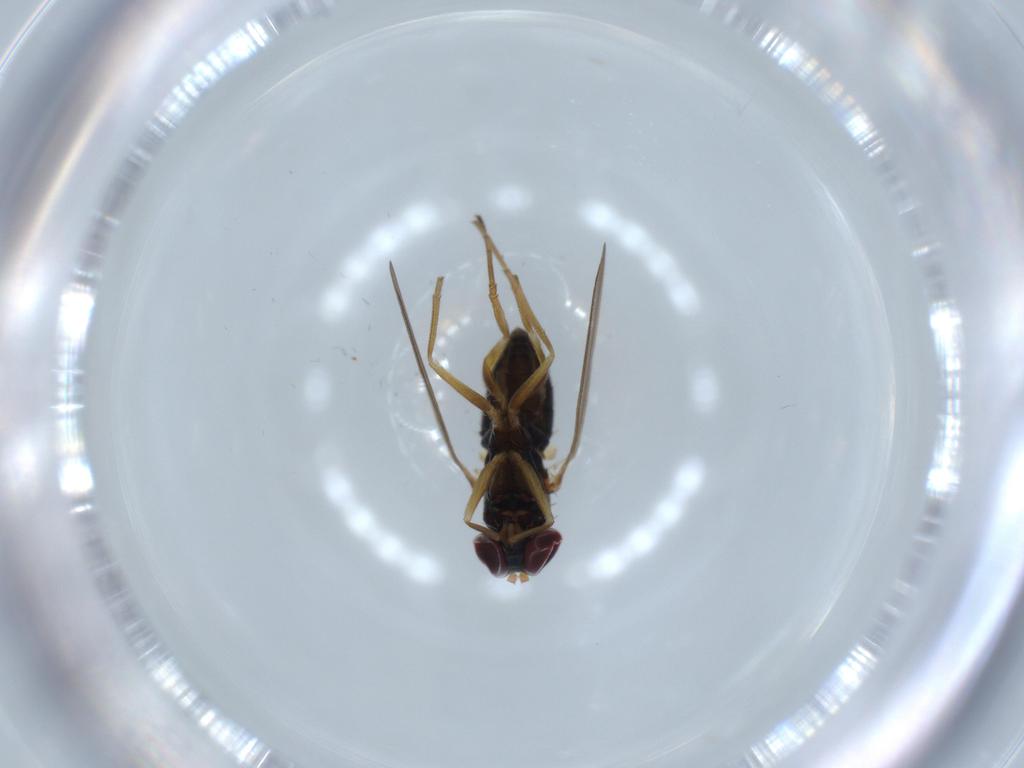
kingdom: Animalia
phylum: Arthropoda
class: Insecta
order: Diptera
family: Dolichopodidae
